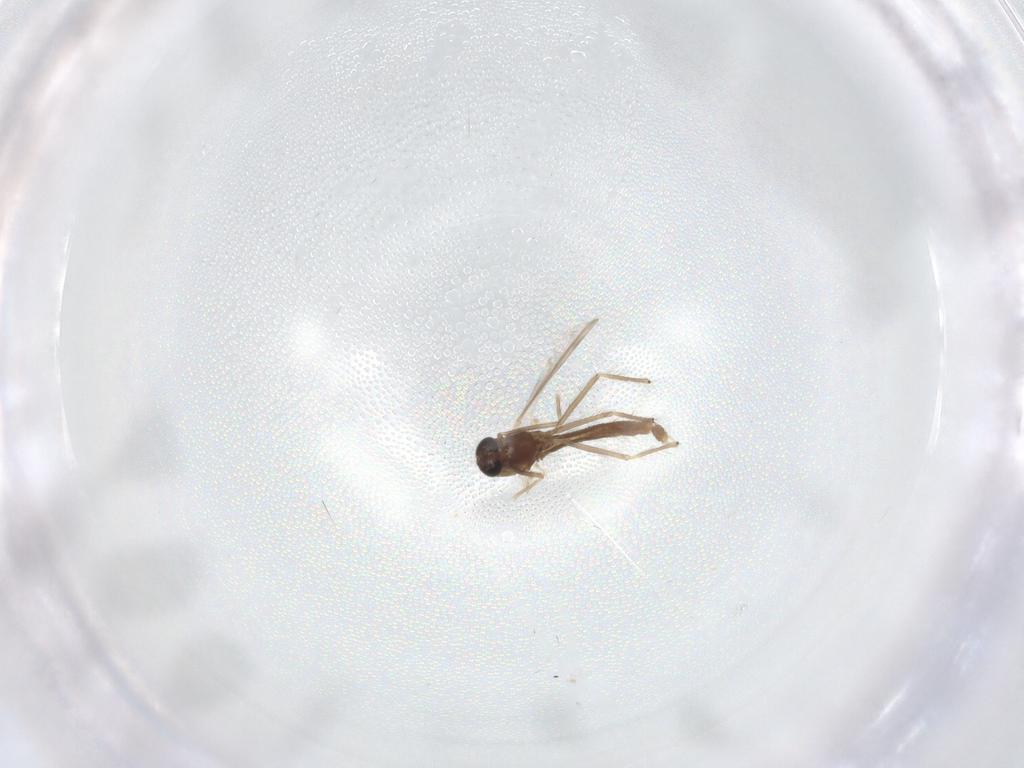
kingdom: Animalia
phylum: Arthropoda
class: Insecta
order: Diptera
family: Chironomidae
